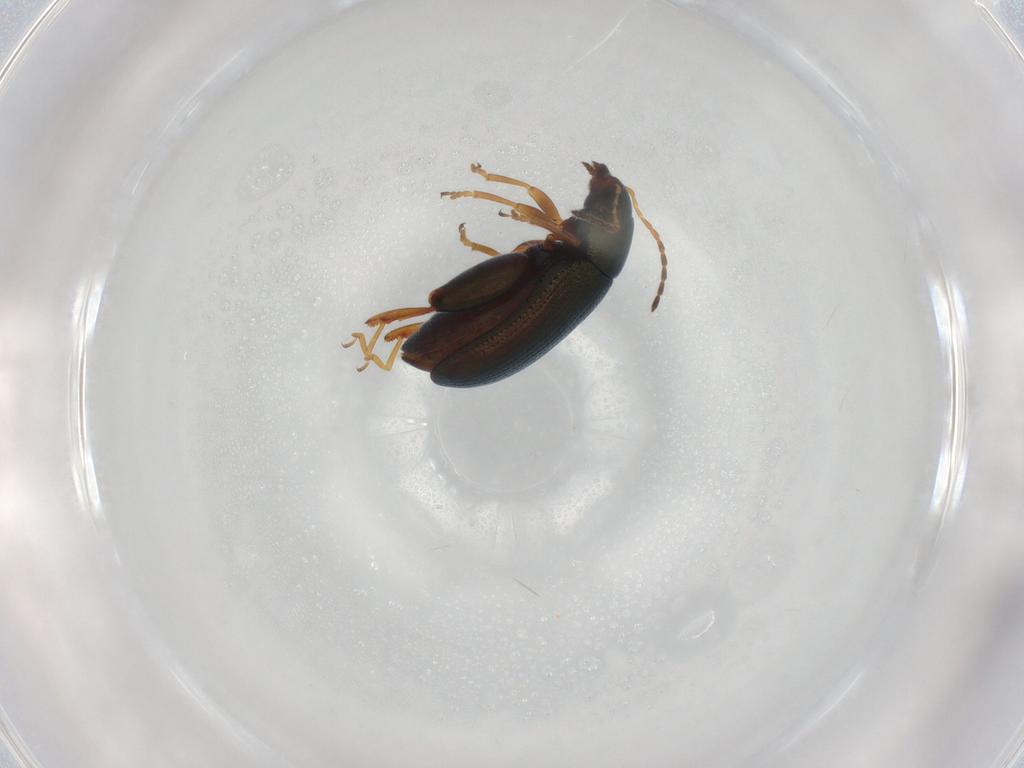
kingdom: Animalia
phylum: Arthropoda
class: Insecta
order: Coleoptera
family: Chrysomelidae
